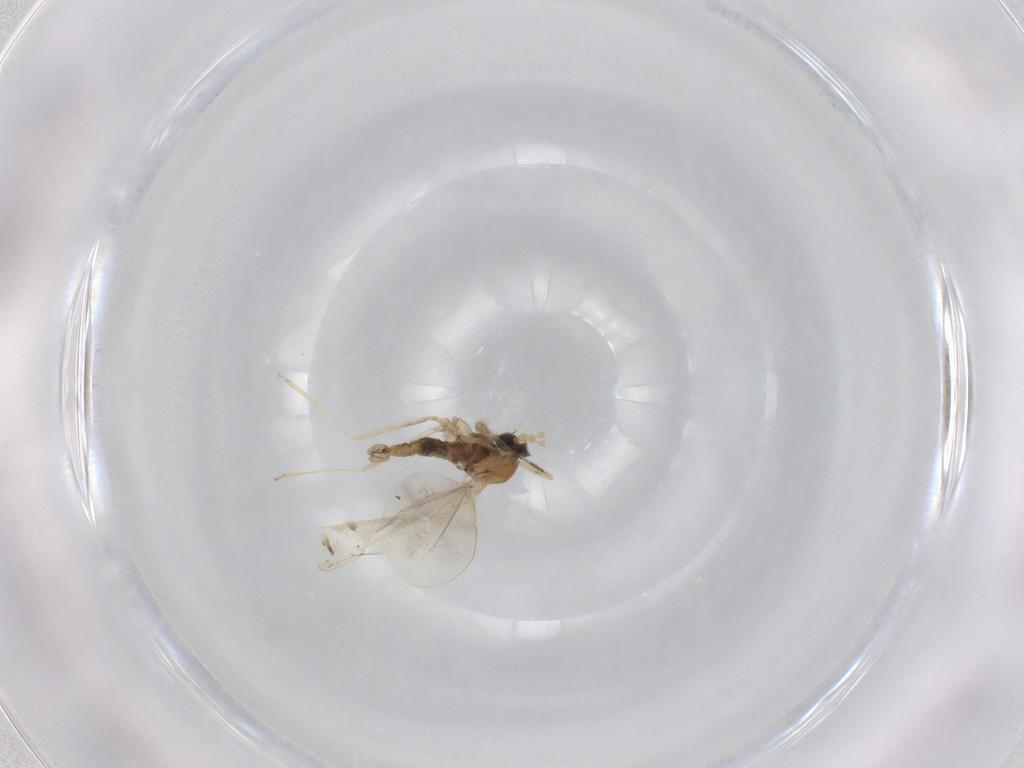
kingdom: Animalia
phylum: Arthropoda
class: Insecta
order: Diptera
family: Cecidomyiidae
